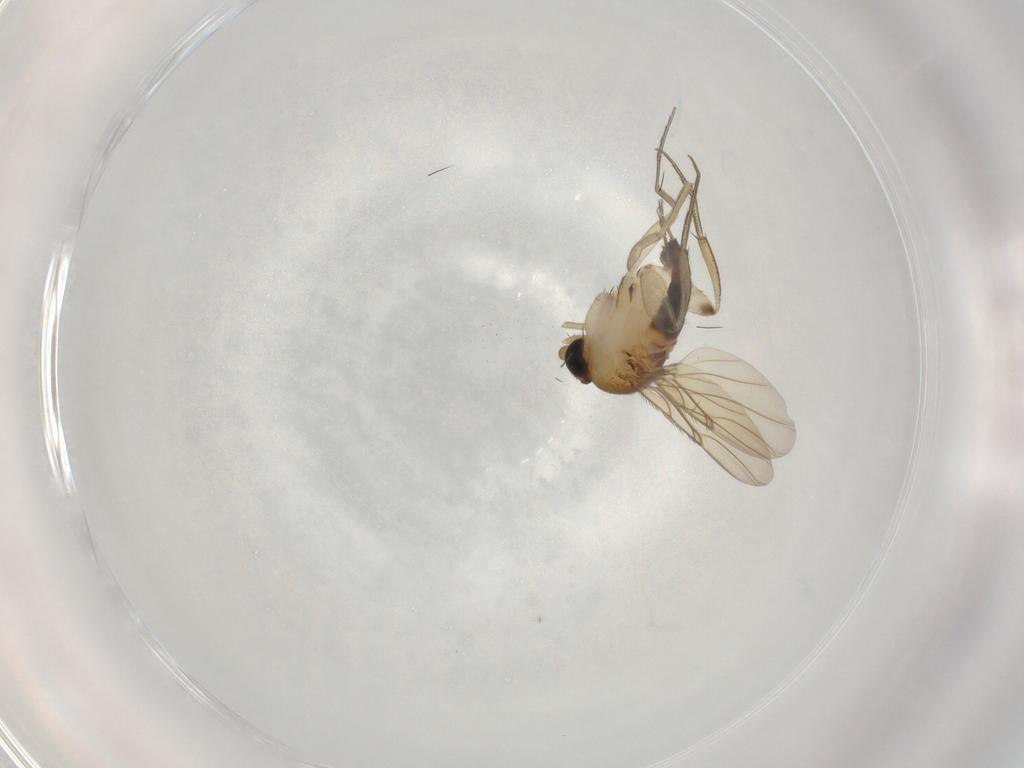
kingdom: Animalia
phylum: Arthropoda
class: Insecta
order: Diptera
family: Phoridae
